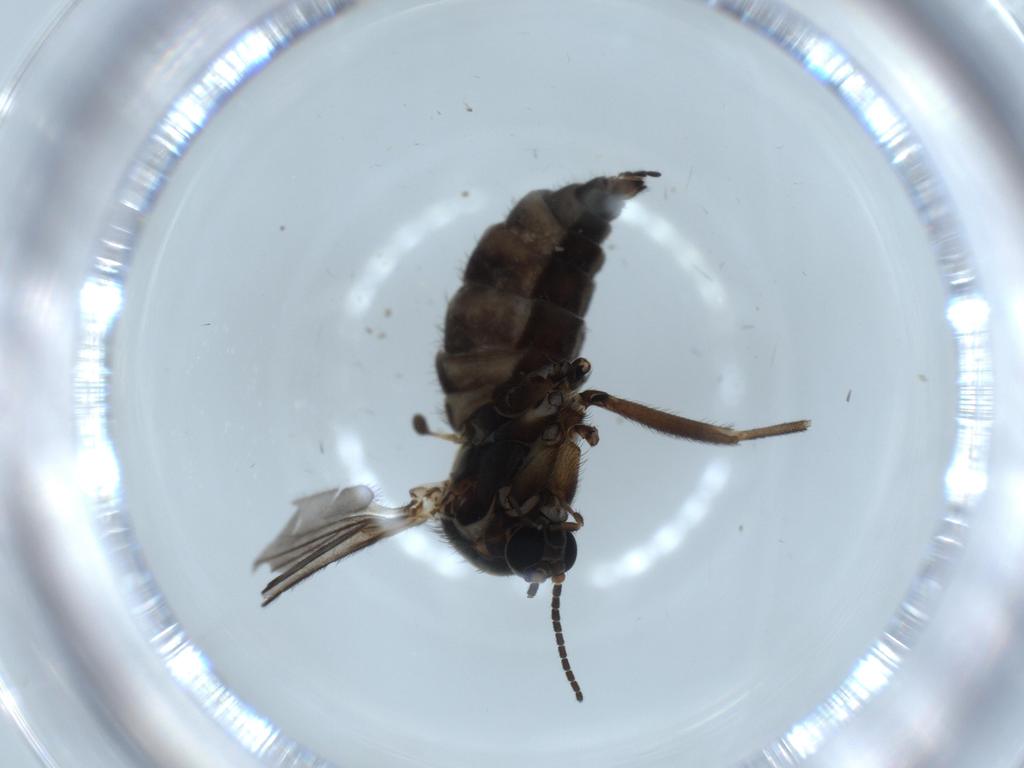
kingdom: Animalia
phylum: Arthropoda
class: Insecta
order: Diptera
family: Sciaridae
